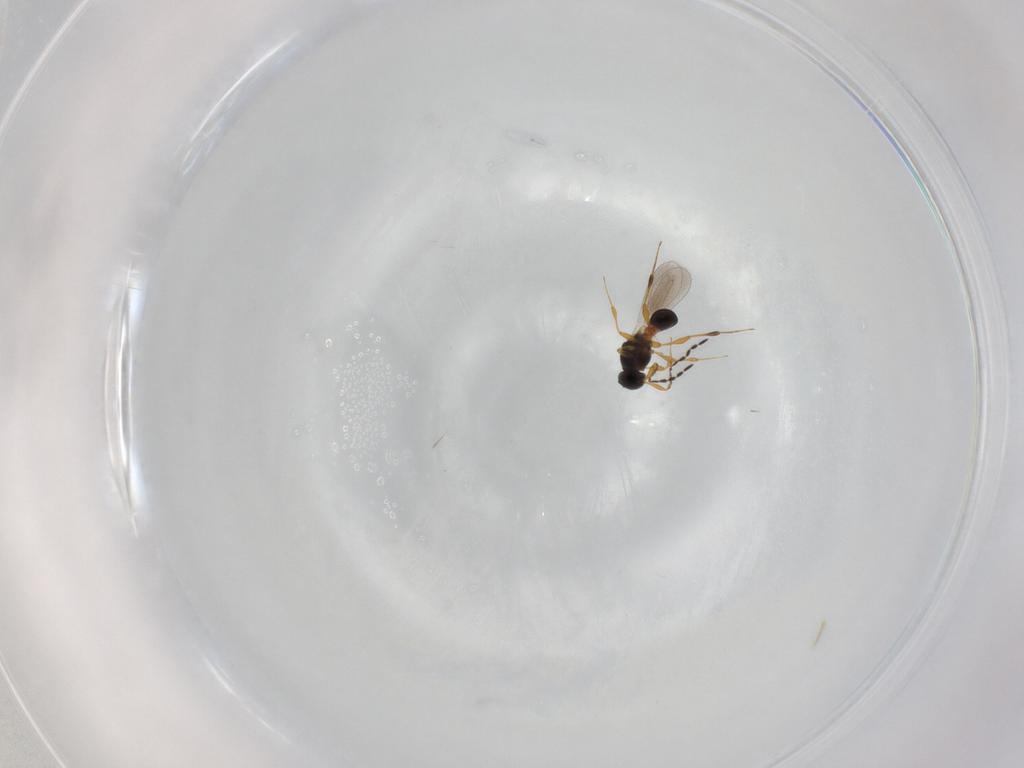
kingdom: Animalia
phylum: Arthropoda
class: Insecta
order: Hymenoptera
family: Platygastridae
